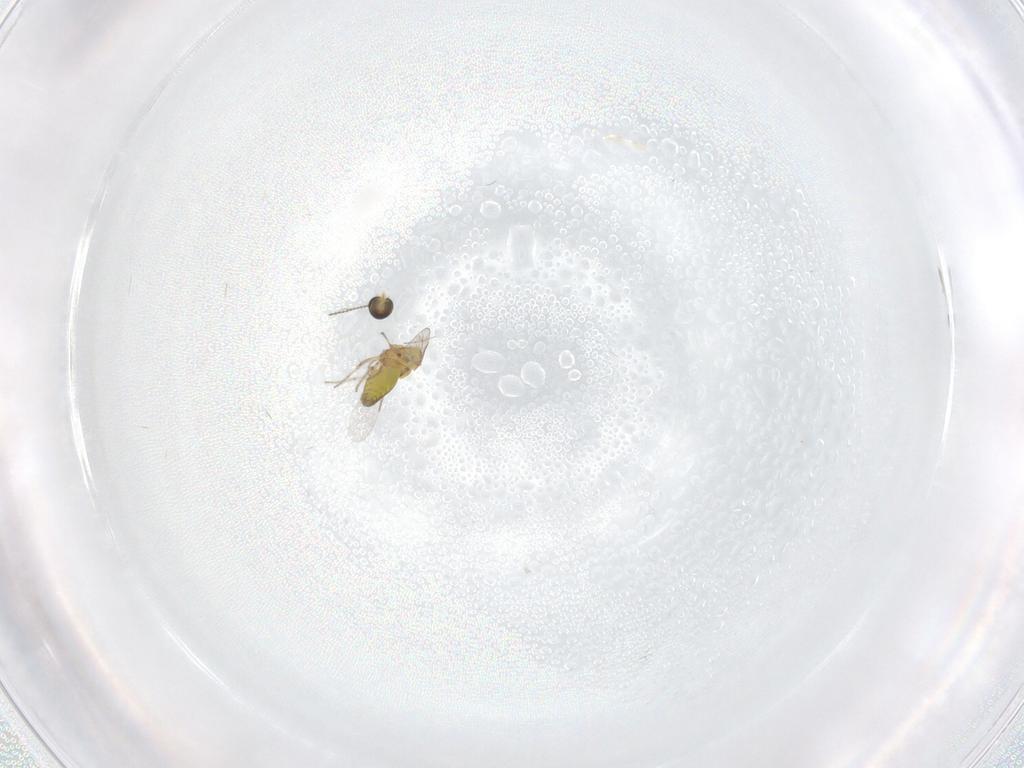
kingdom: Animalia
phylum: Arthropoda
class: Insecta
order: Diptera
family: Ceratopogonidae
